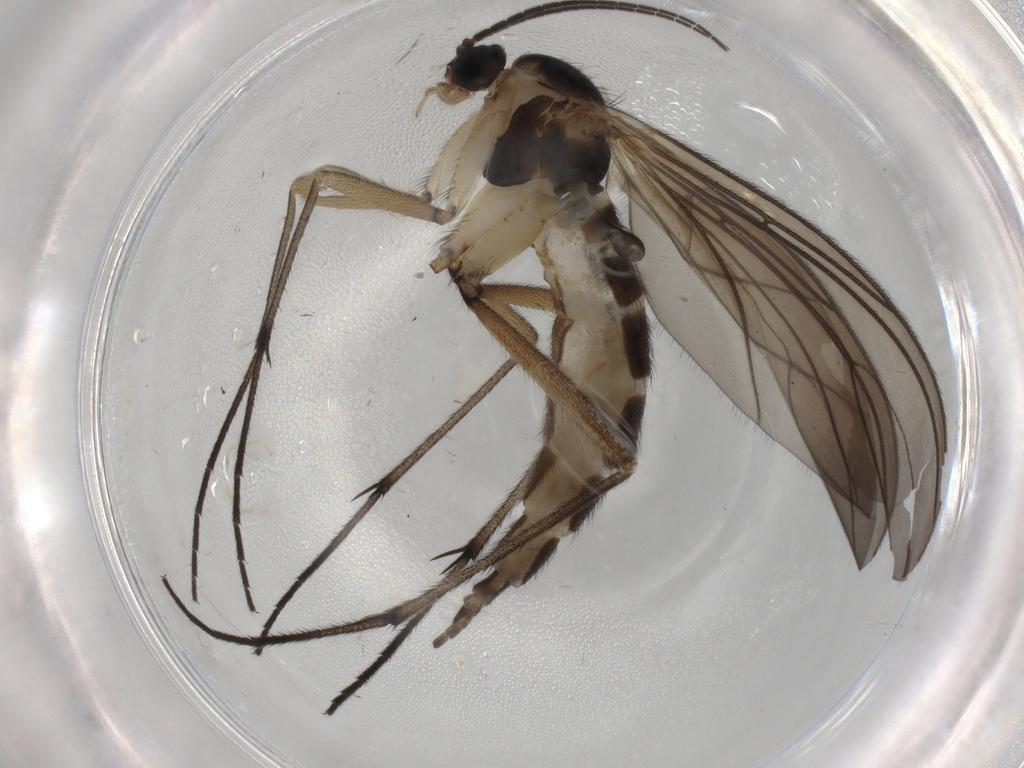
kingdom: Animalia
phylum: Arthropoda
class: Insecta
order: Diptera
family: Sciaridae
